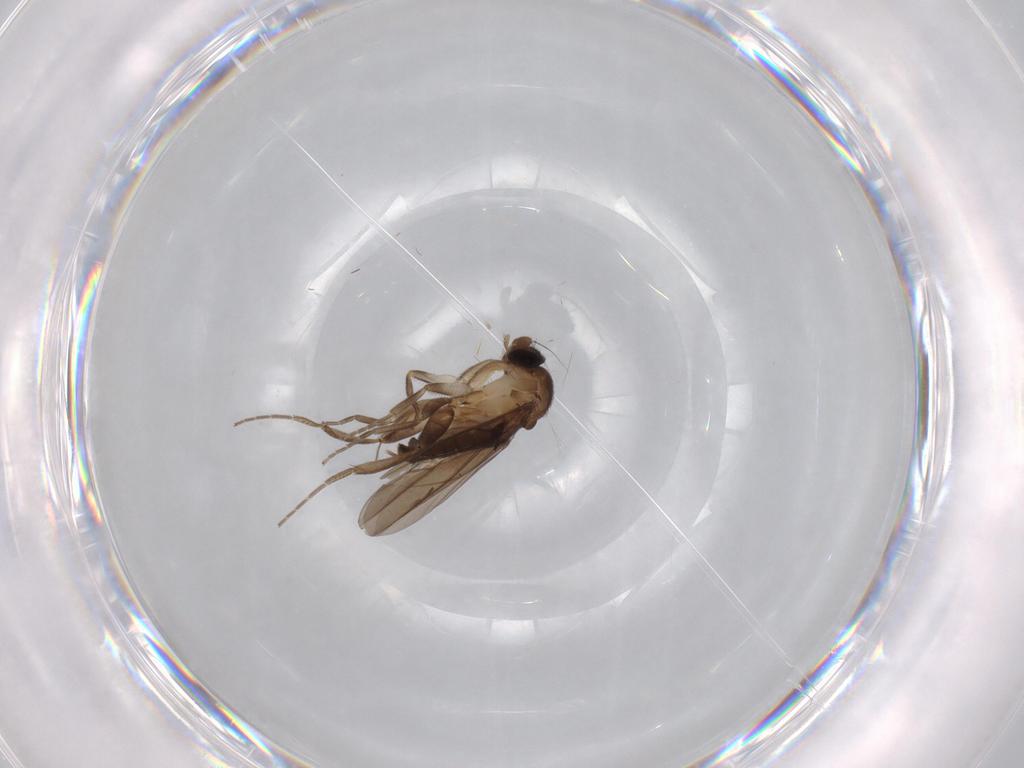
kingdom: Animalia
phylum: Arthropoda
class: Insecta
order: Diptera
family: Chironomidae
